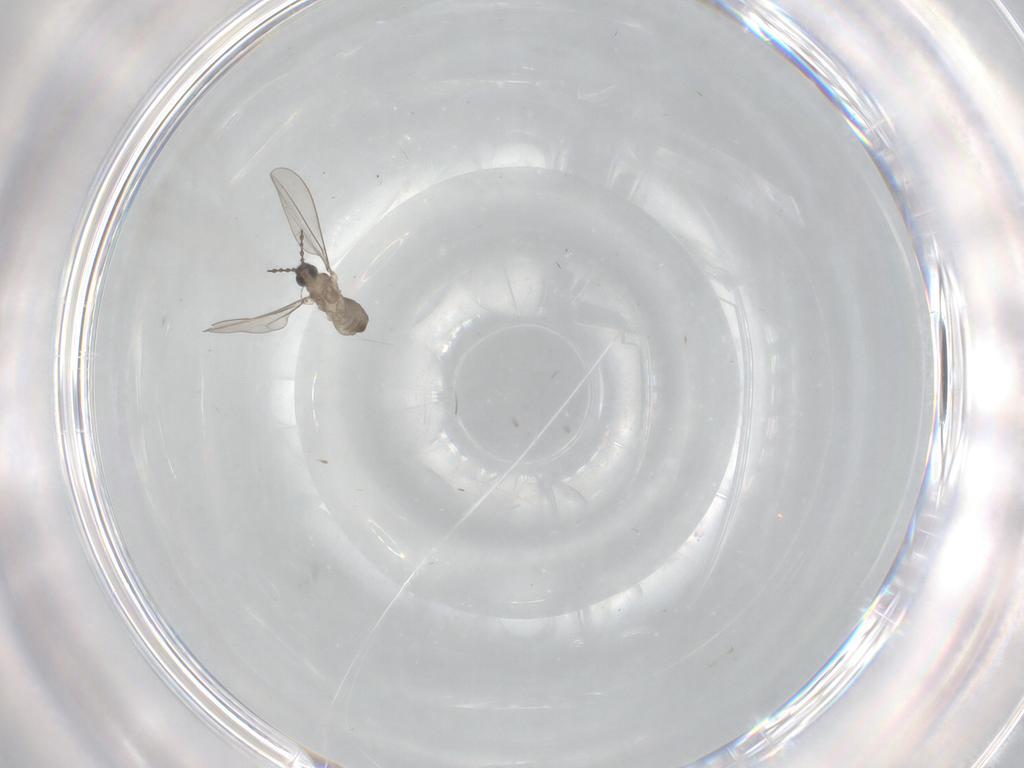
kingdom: Animalia
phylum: Arthropoda
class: Insecta
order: Diptera
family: Cecidomyiidae
